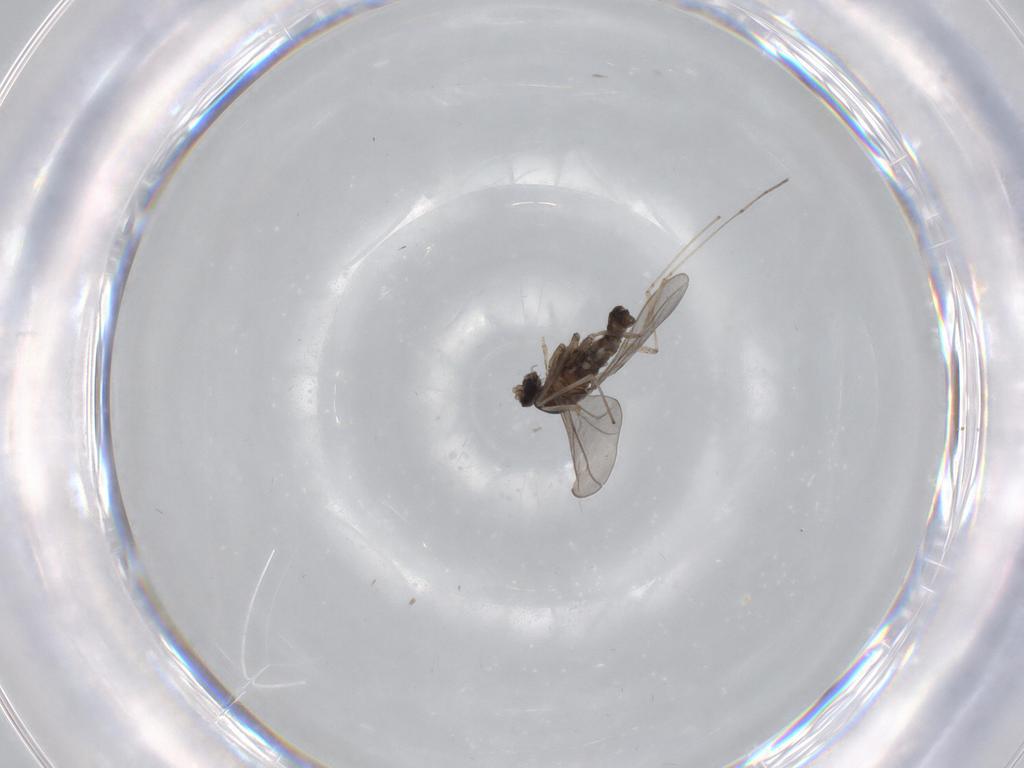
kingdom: Animalia
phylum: Arthropoda
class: Insecta
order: Diptera
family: Cecidomyiidae
